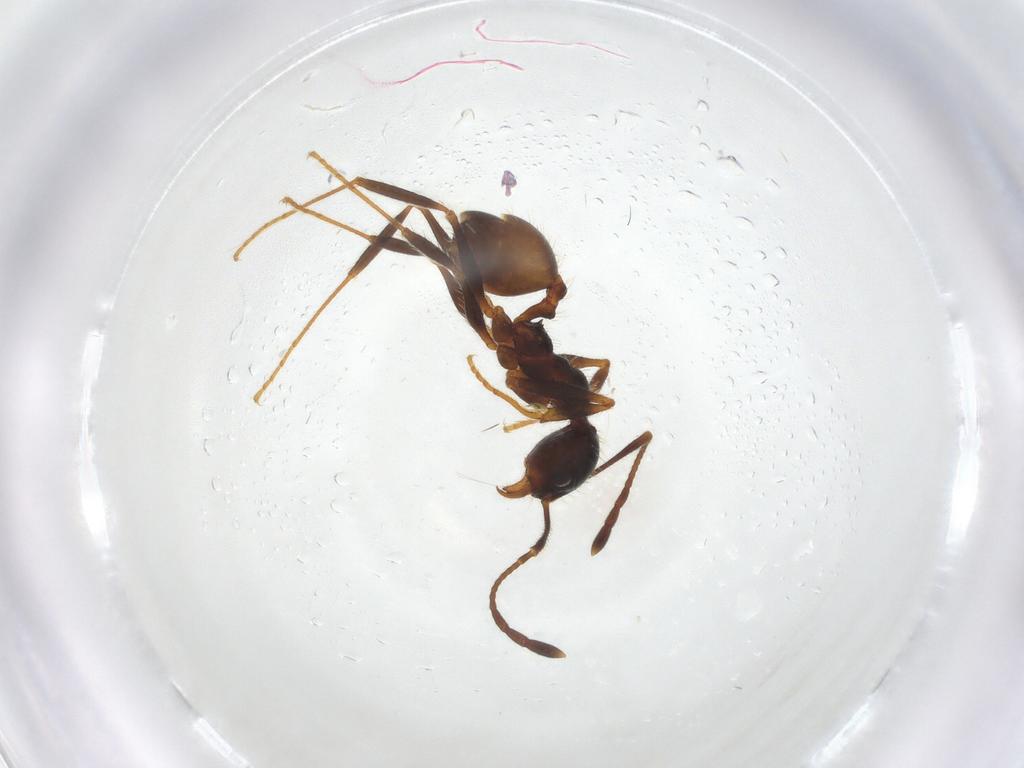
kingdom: Animalia
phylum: Arthropoda
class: Insecta
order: Hymenoptera
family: Formicidae
